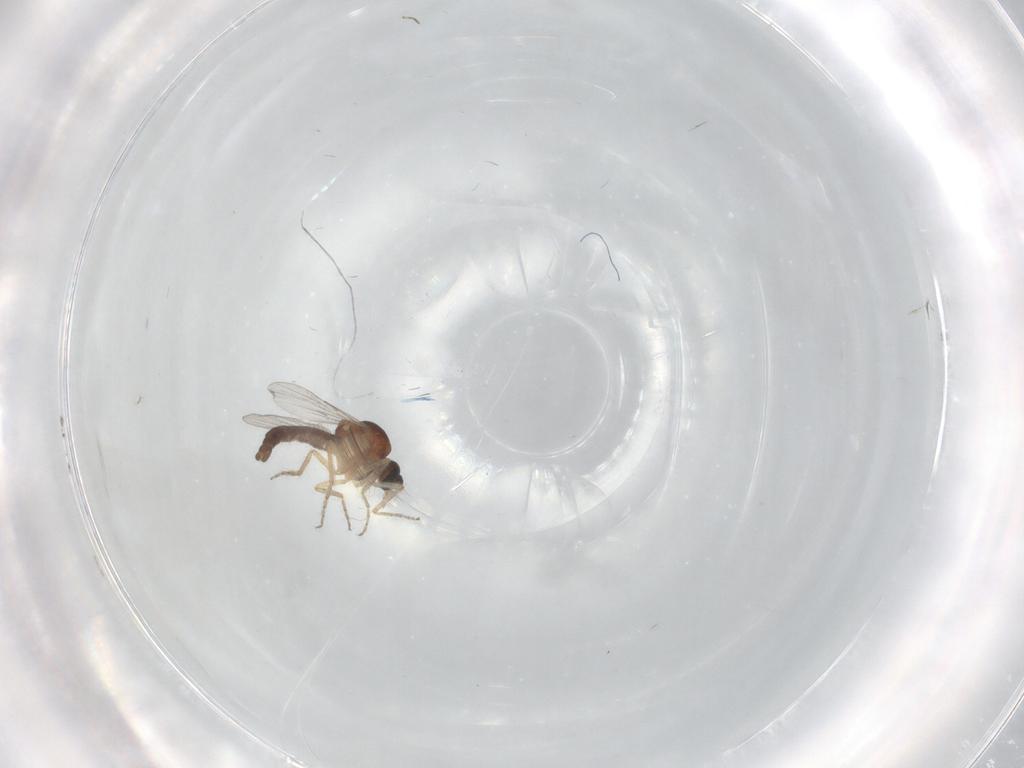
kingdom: Animalia
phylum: Arthropoda
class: Insecta
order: Diptera
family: Ceratopogonidae
